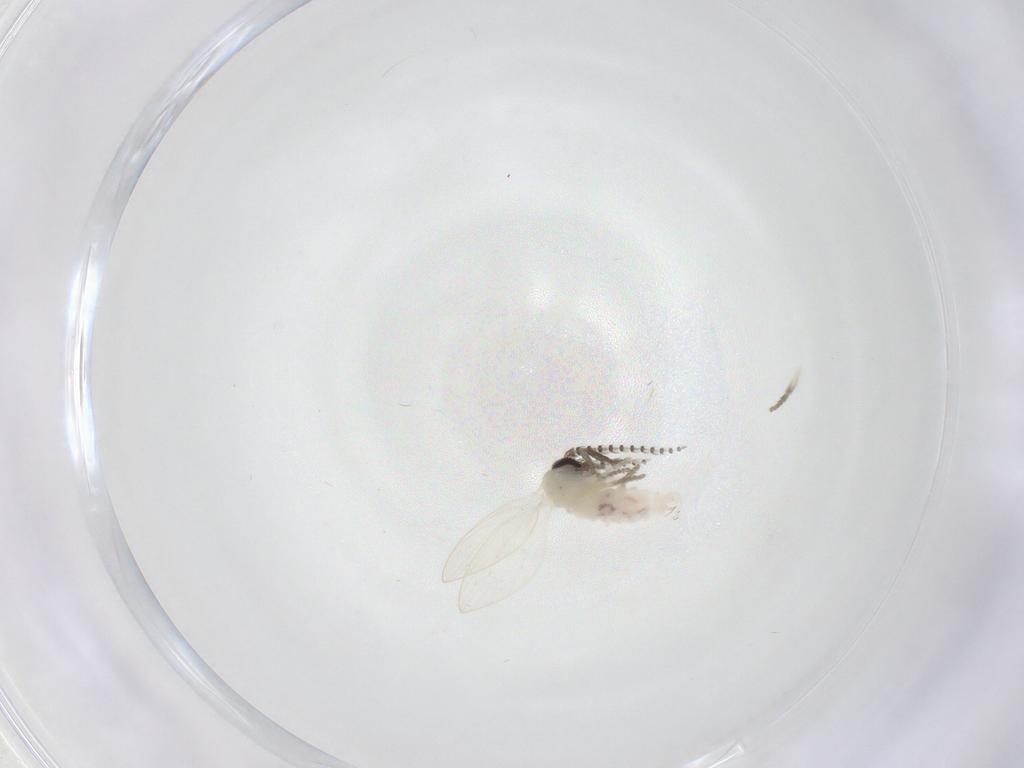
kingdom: Animalia
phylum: Arthropoda
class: Insecta
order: Diptera
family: Psychodidae
